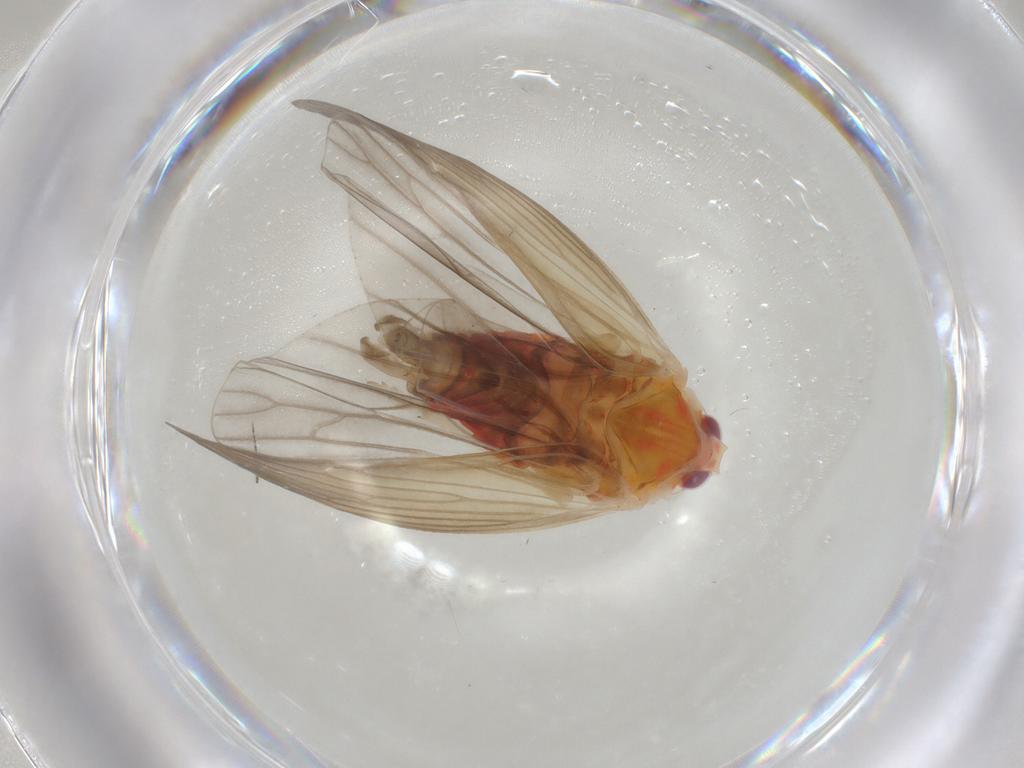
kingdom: Animalia
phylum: Arthropoda
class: Insecta
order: Hemiptera
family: Derbidae
